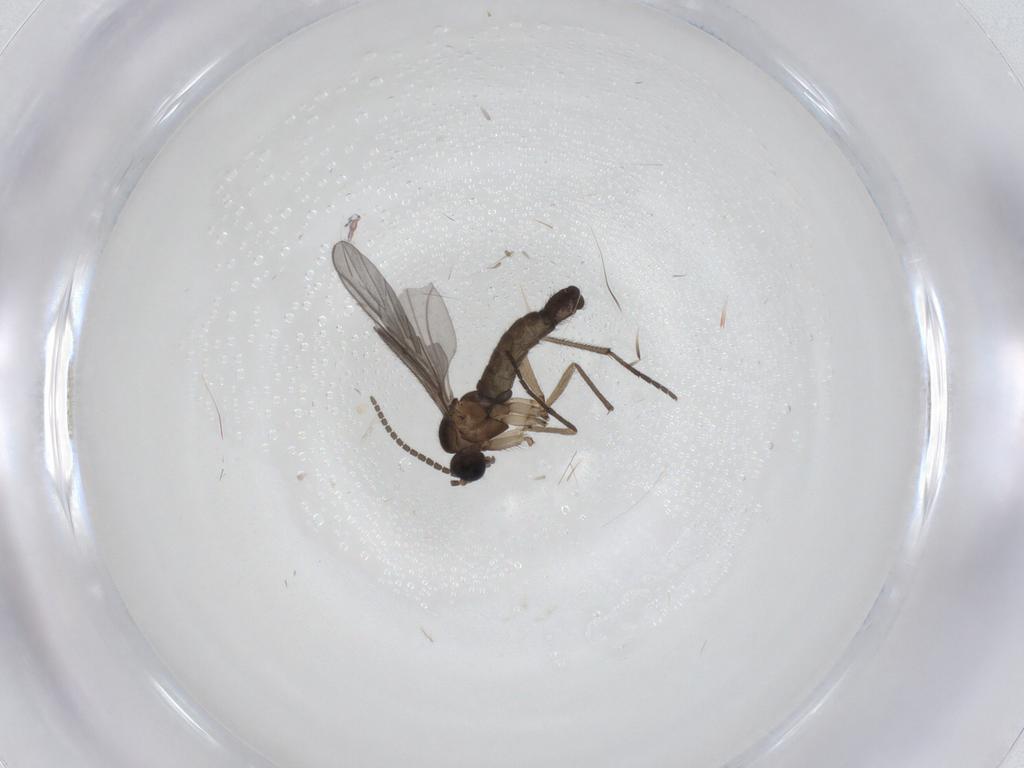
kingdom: Animalia
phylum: Arthropoda
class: Insecta
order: Diptera
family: Sciaridae
